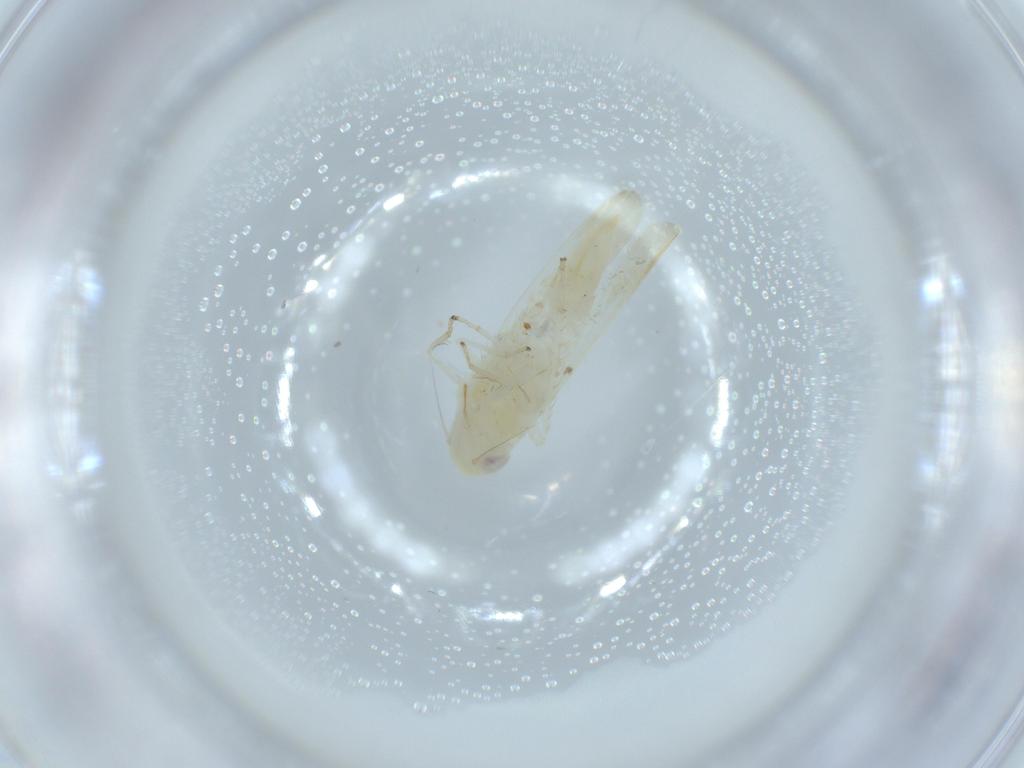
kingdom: Animalia
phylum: Arthropoda
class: Insecta
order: Hemiptera
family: Cicadellidae
